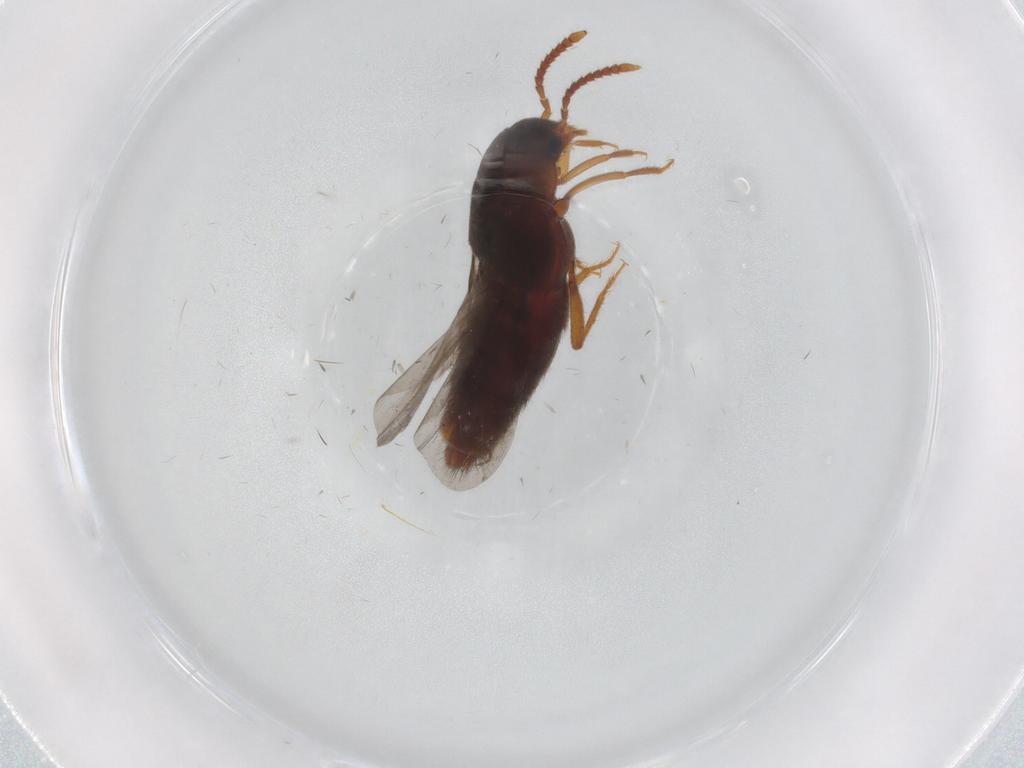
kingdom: Animalia
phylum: Arthropoda
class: Insecta
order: Coleoptera
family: Staphylinidae
